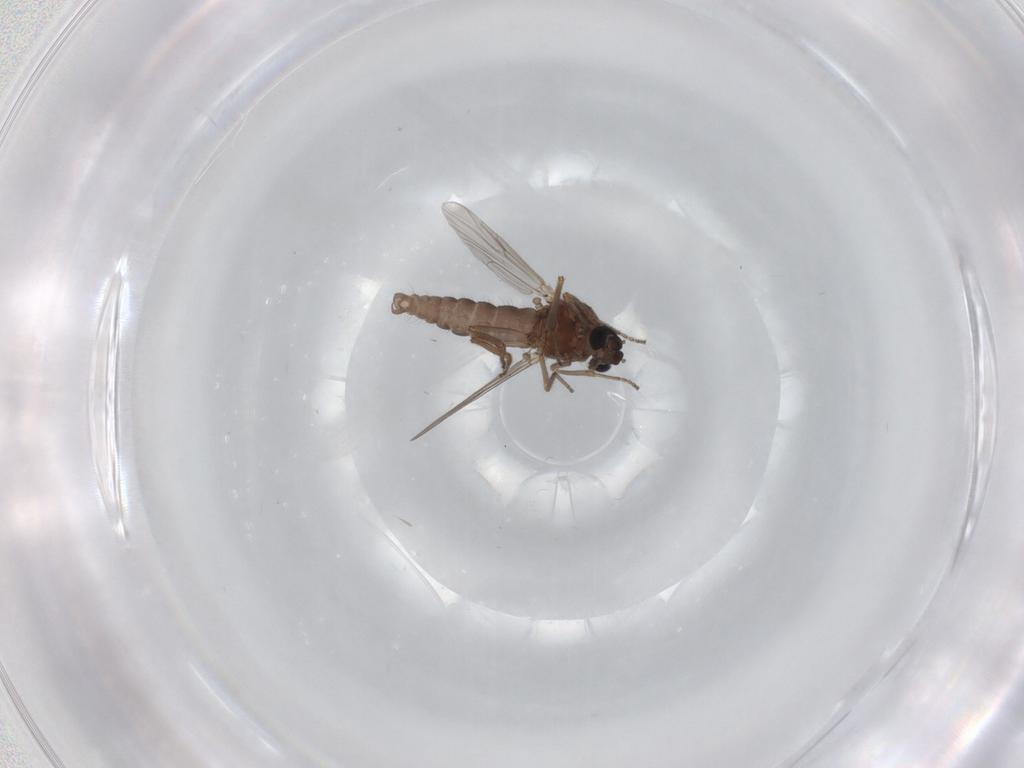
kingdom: Animalia
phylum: Arthropoda
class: Insecta
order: Diptera
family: Ceratopogonidae
